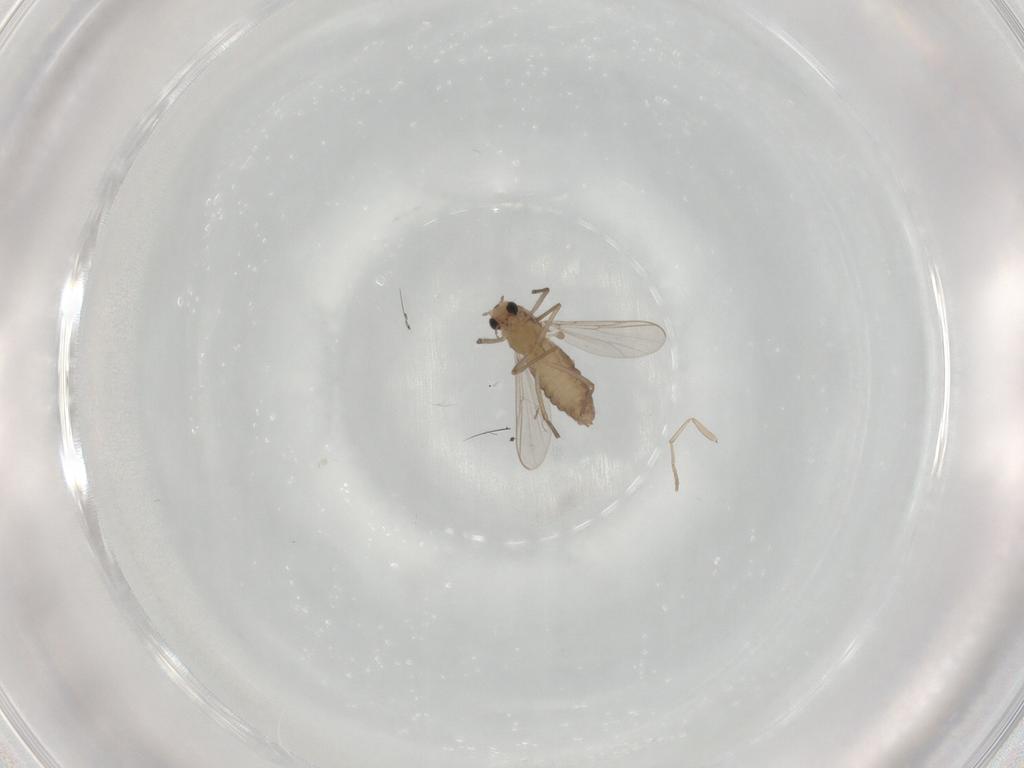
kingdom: Animalia
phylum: Arthropoda
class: Insecta
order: Diptera
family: Chironomidae
